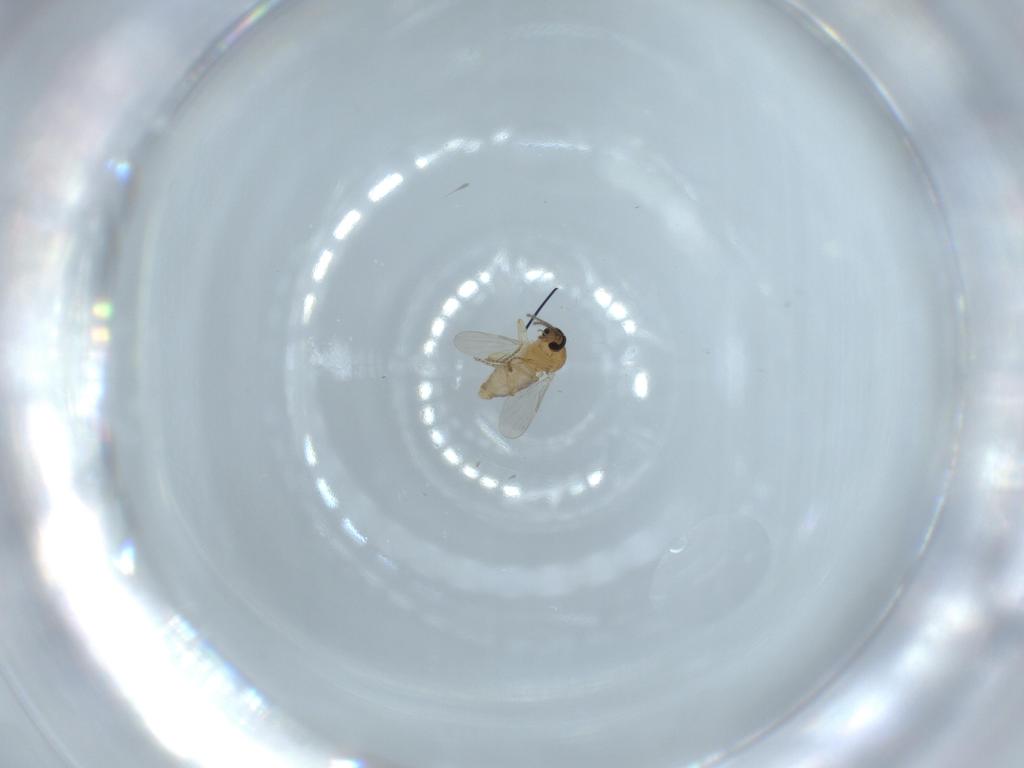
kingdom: Animalia
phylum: Arthropoda
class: Insecta
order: Diptera
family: Ceratopogonidae
